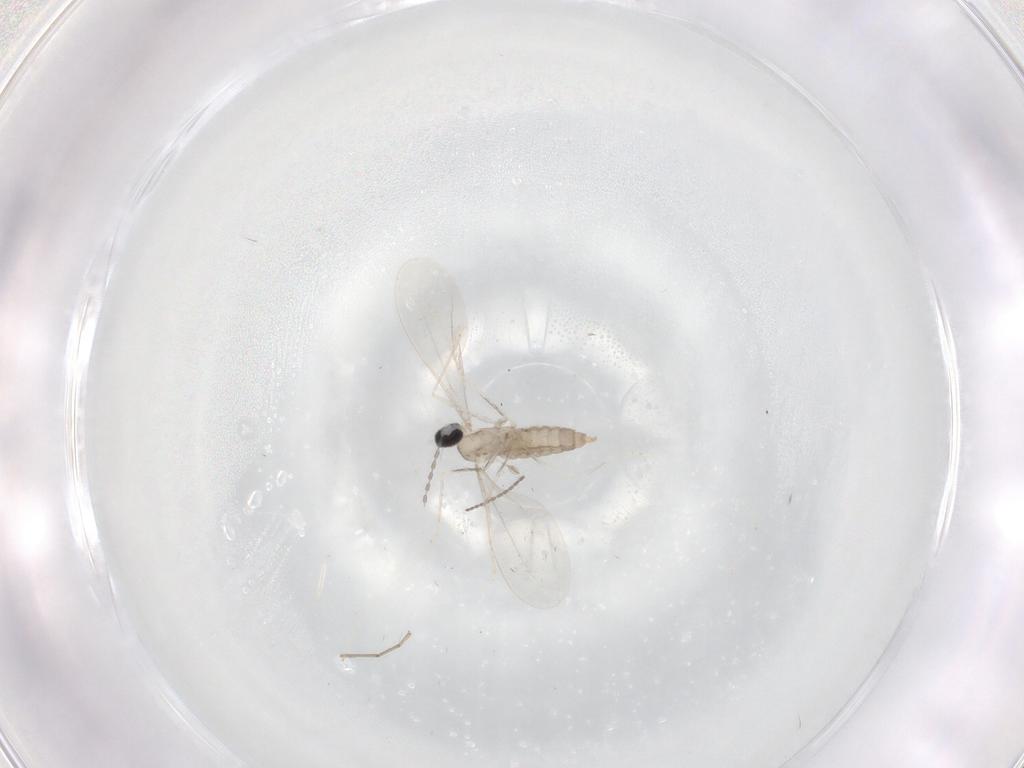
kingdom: Animalia
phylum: Arthropoda
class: Insecta
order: Diptera
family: Cecidomyiidae
